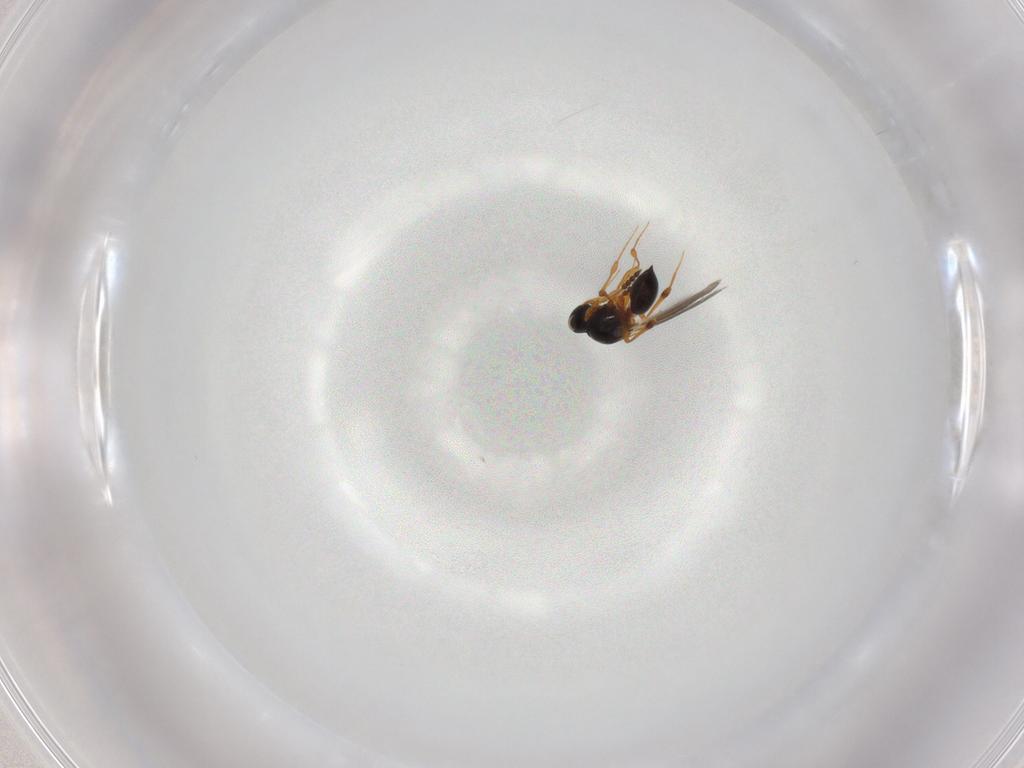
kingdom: Animalia
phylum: Arthropoda
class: Insecta
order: Hymenoptera
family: Platygastridae
